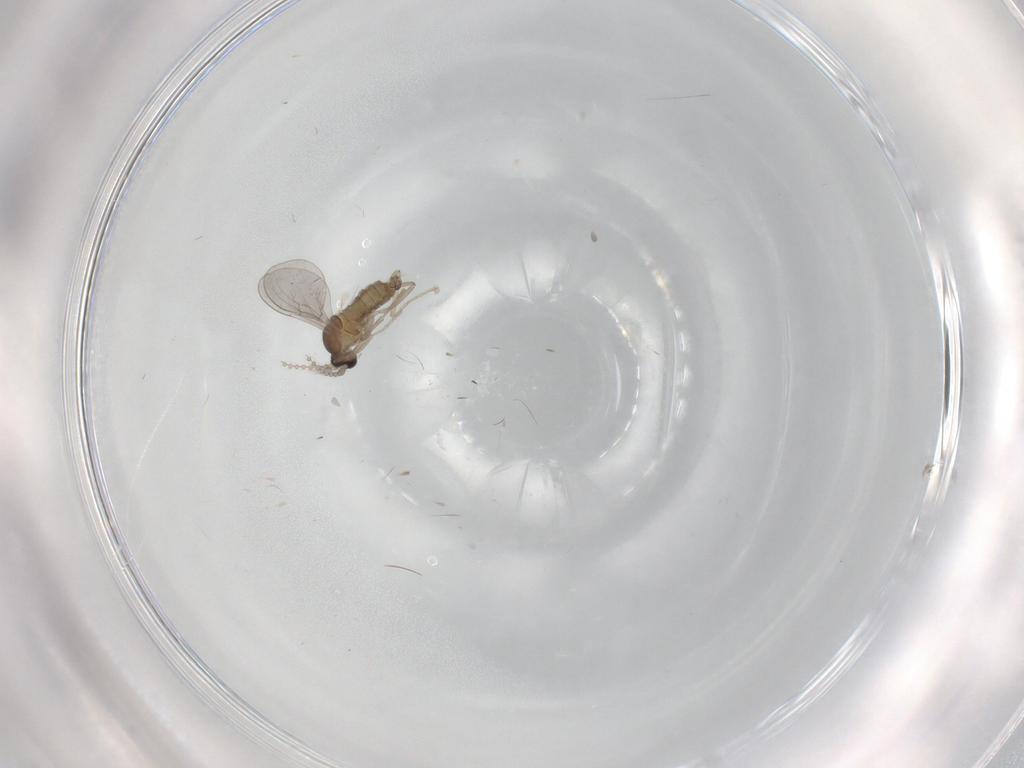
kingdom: Animalia
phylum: Arthropoda
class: Insecta
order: Diptera
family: Cecidomyiidae
